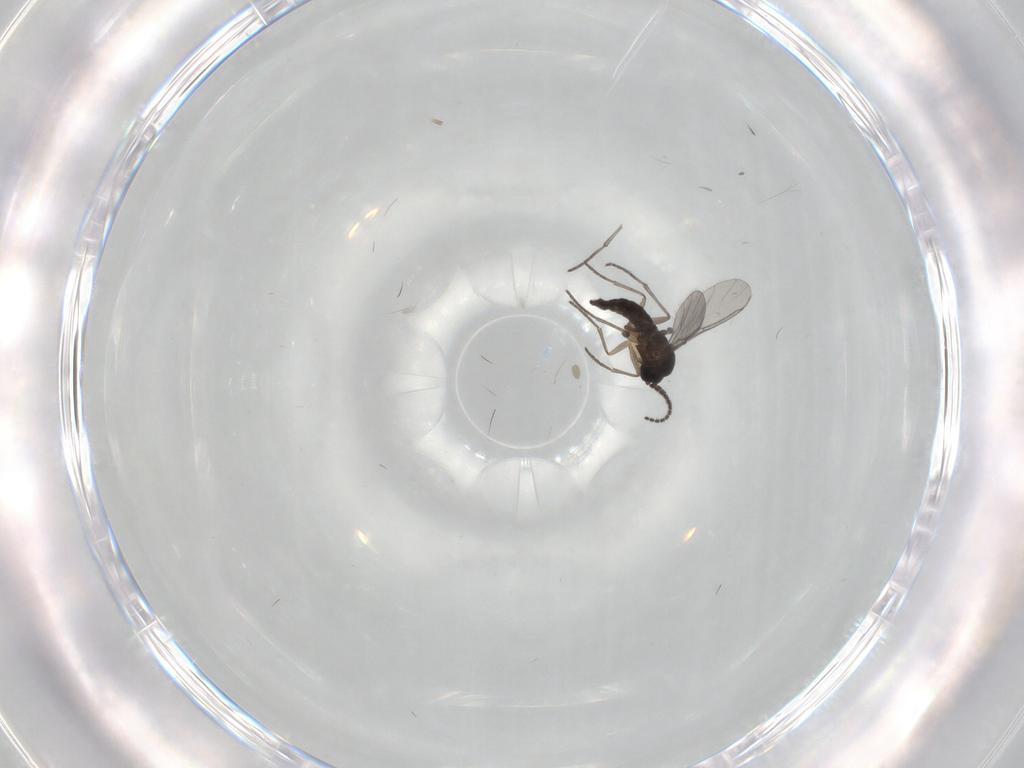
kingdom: Animalia
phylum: Arthropoda
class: Insecta
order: Diptera
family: Sciaridae
